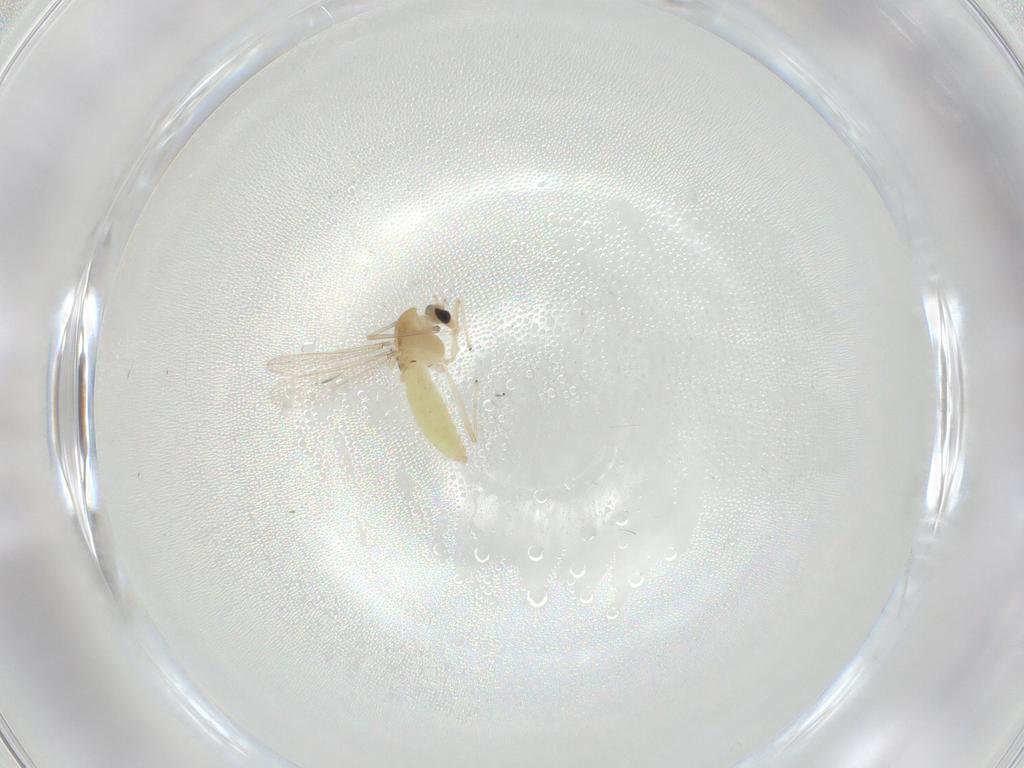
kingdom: Animalia
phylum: Arthropoda
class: Insecta
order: Diptera
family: Chironomidae
